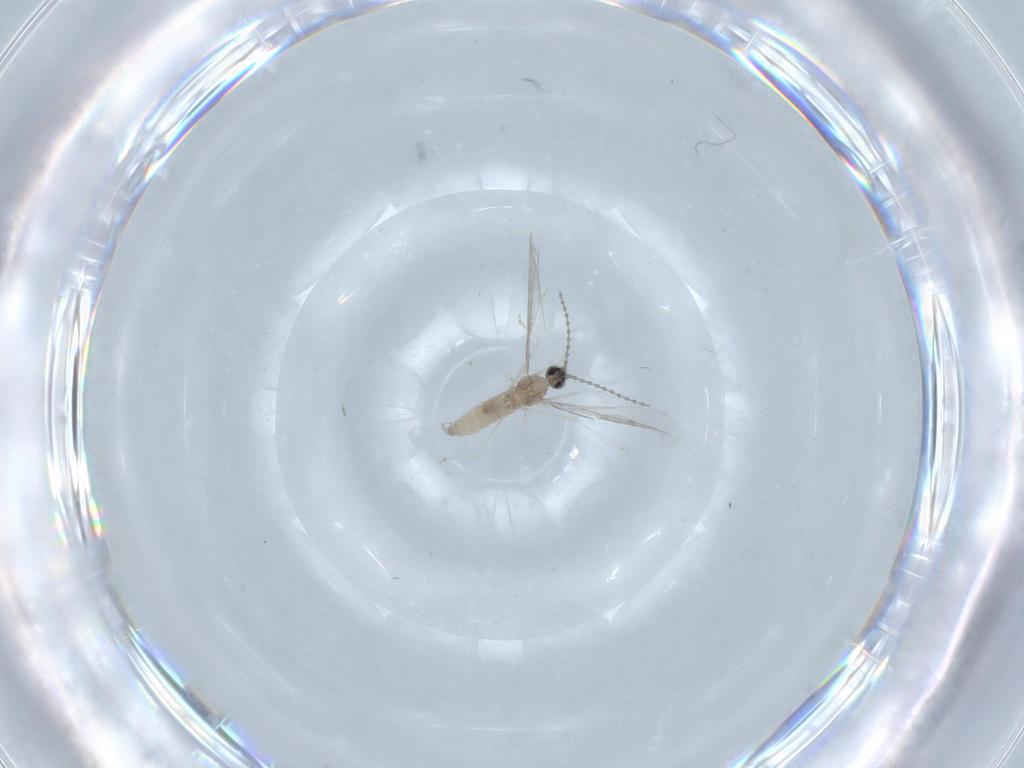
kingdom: Animalia
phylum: Arthropoda
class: Insecta
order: Diptera
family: Cecidomyiidae
